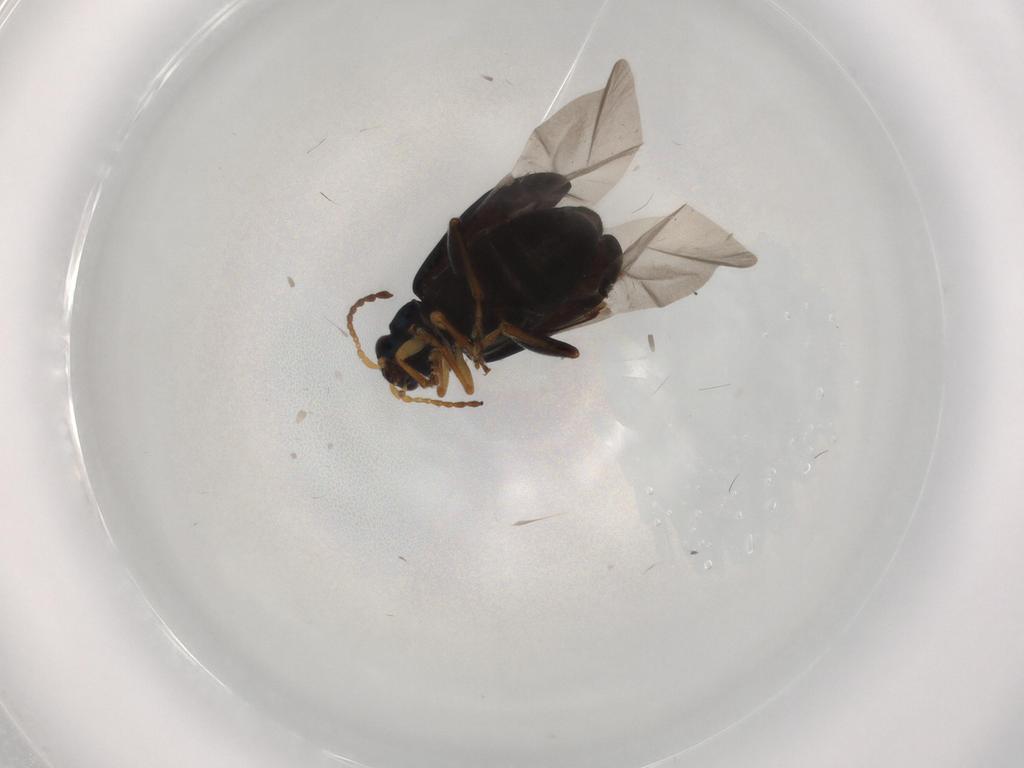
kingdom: Animalia
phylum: Arthropoda
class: Insecta
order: Coleoptera
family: Chrysomelidae
